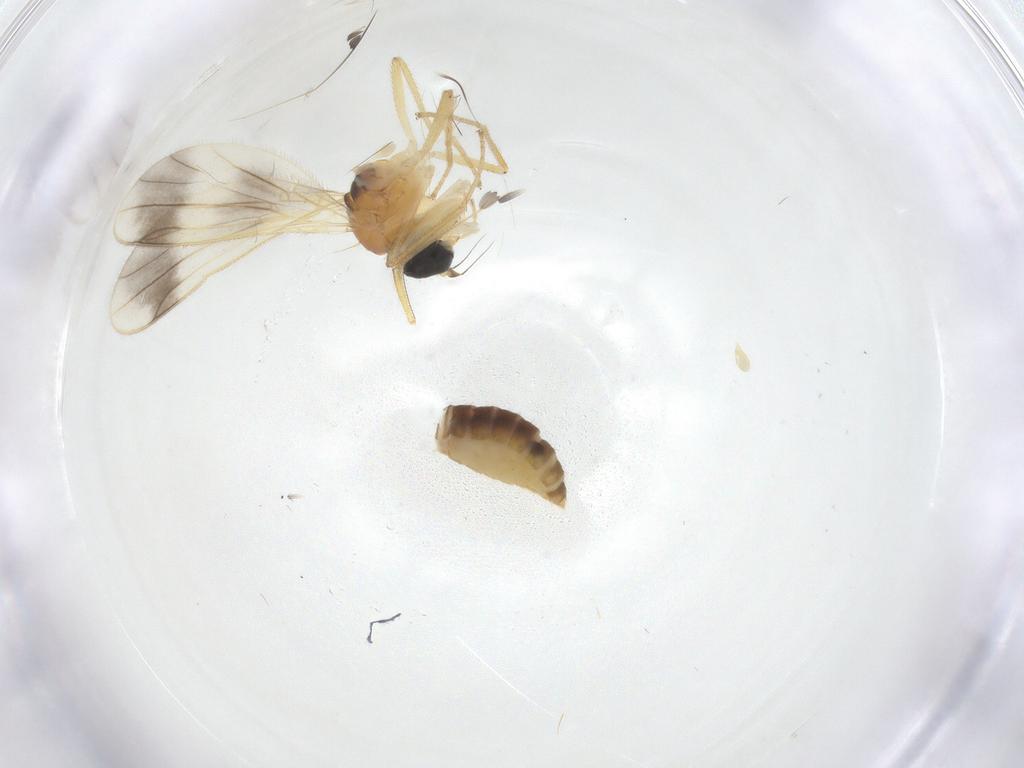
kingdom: Animalia
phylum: Arthropoda
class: Insecta
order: Diptera
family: Empididae
